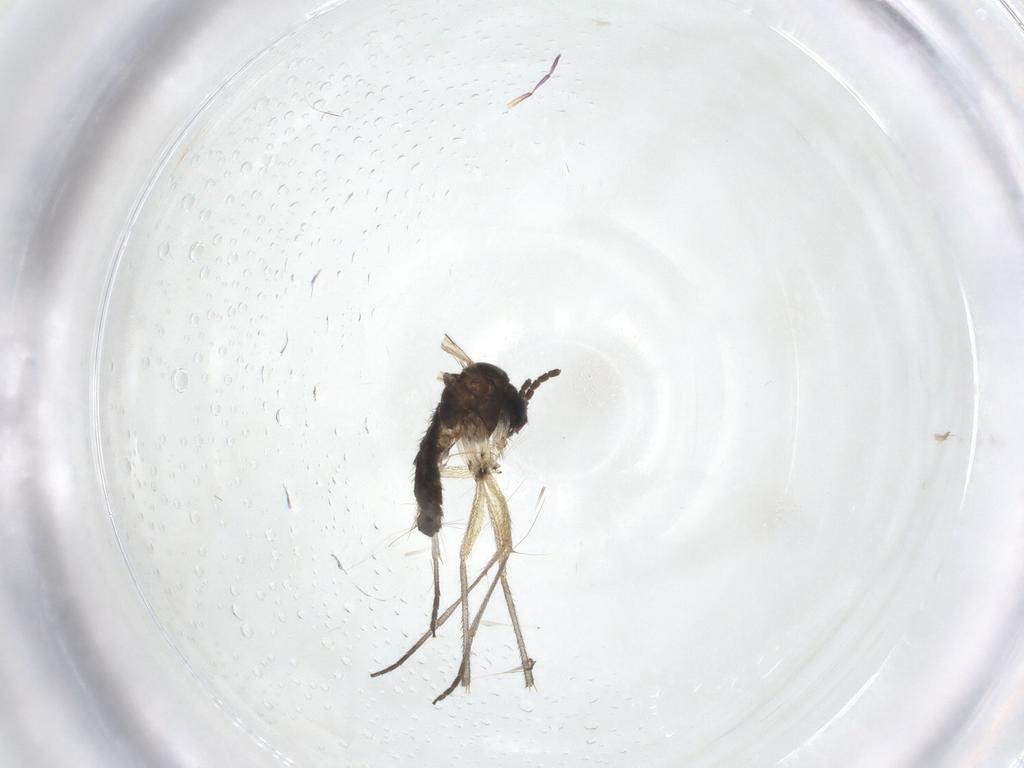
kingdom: Animalia
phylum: Arthropoda
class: Insecta
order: Diptera
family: Sciaridae
